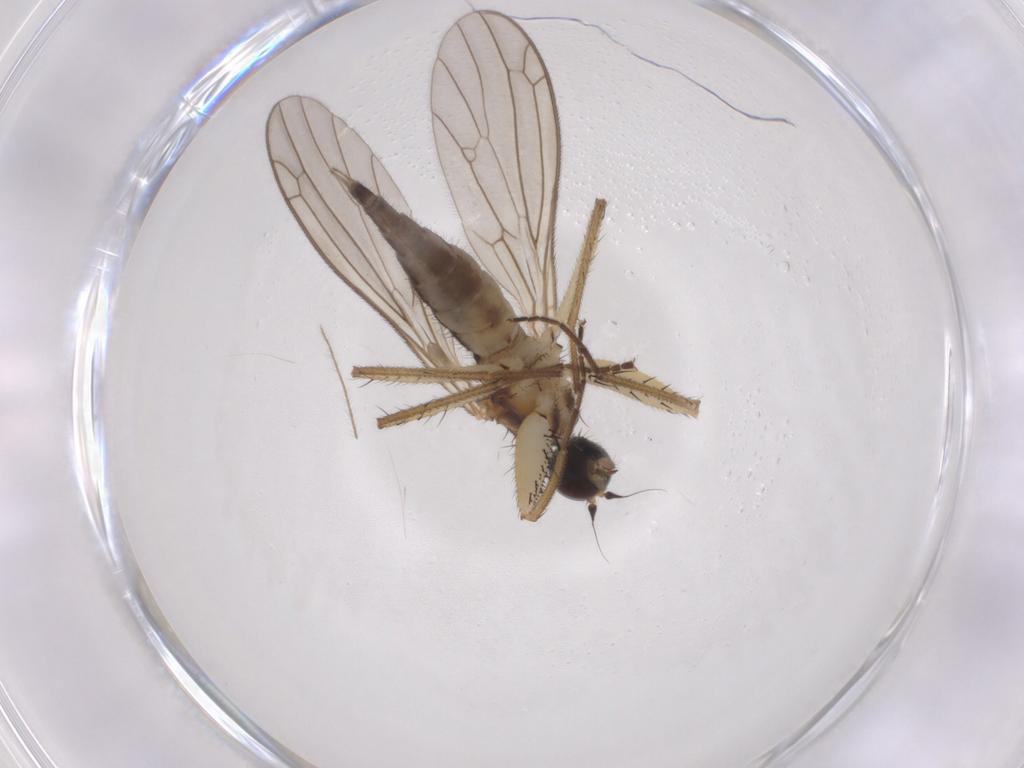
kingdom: Animalia
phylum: Arthropoda
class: Insecta
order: Diptera
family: Empididae
